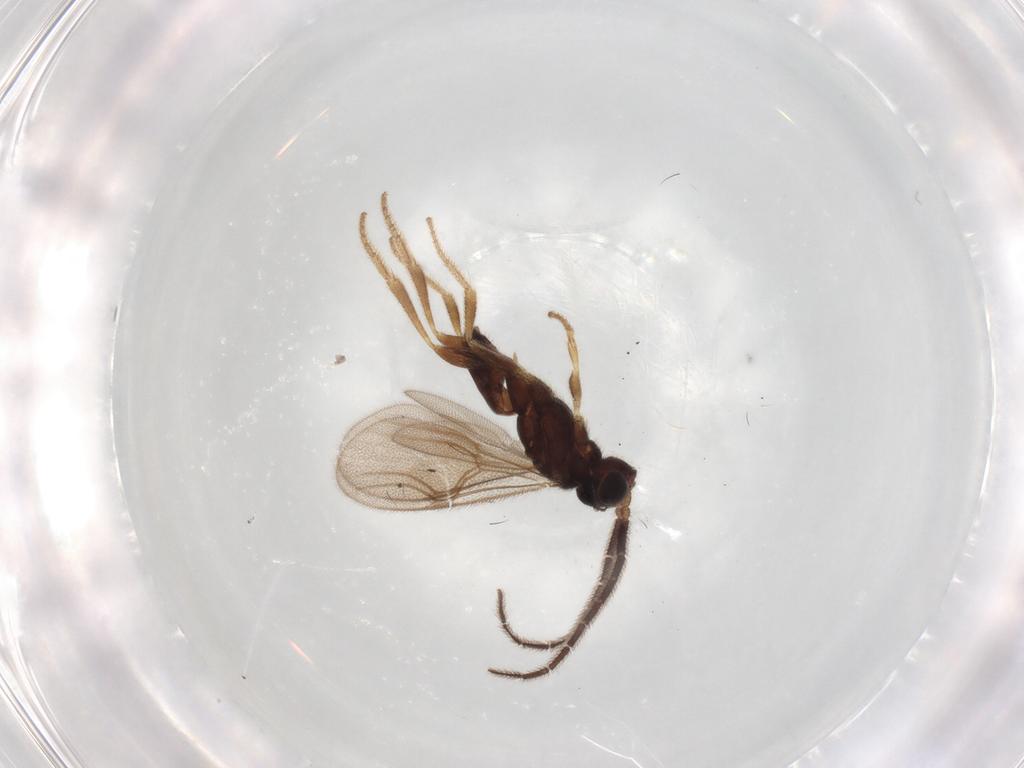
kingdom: Animalia
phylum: Arthropoda
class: Insecta
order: Hymenoptera
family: Dryinidae
